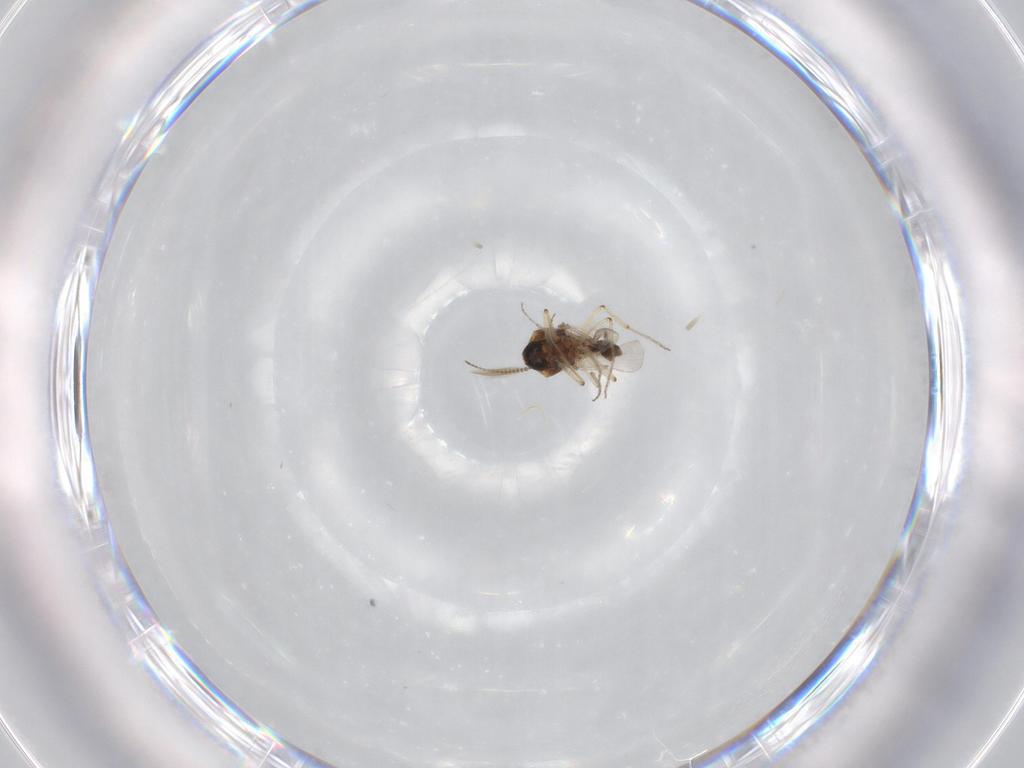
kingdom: Animalia
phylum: Arthropoda
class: Insecta
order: Diptera
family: Ceratopogonidae
